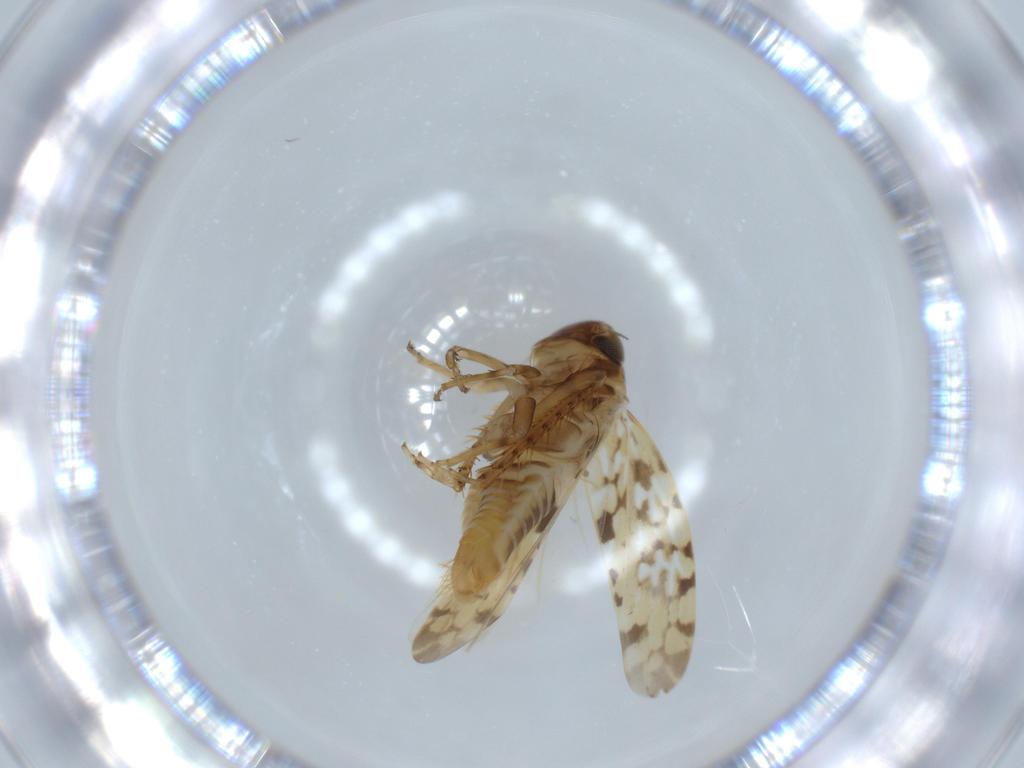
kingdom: Animalia
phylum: Arthropoda
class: Insecta
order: Hemiptera
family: Cicadellidae
